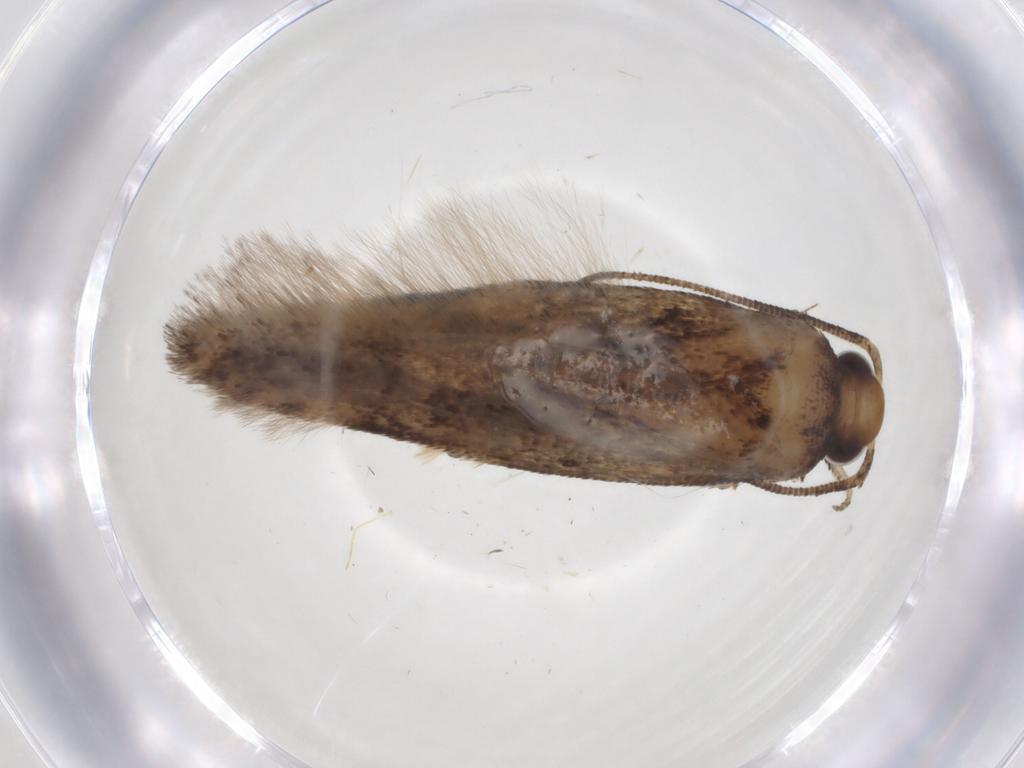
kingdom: Animalia
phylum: Arthropoda
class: Insecta
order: Lepidoptera
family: Gelechiidae
